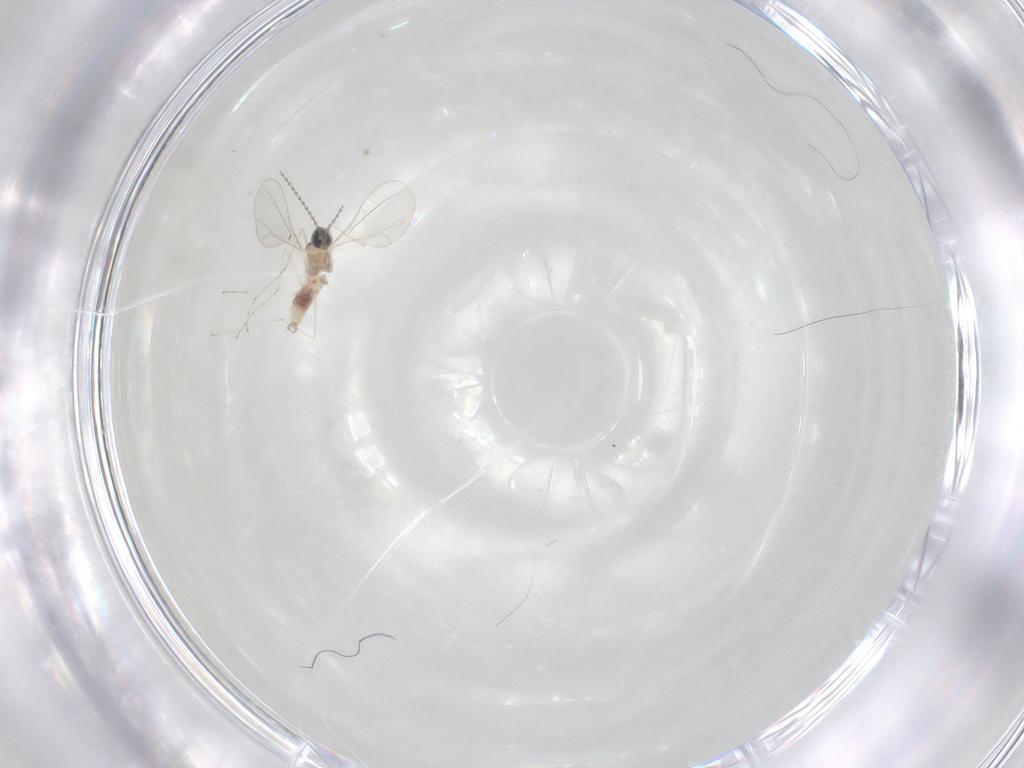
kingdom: Animalia
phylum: Arthropoda
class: Insecta
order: Diptera
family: Cecidomyiidae
